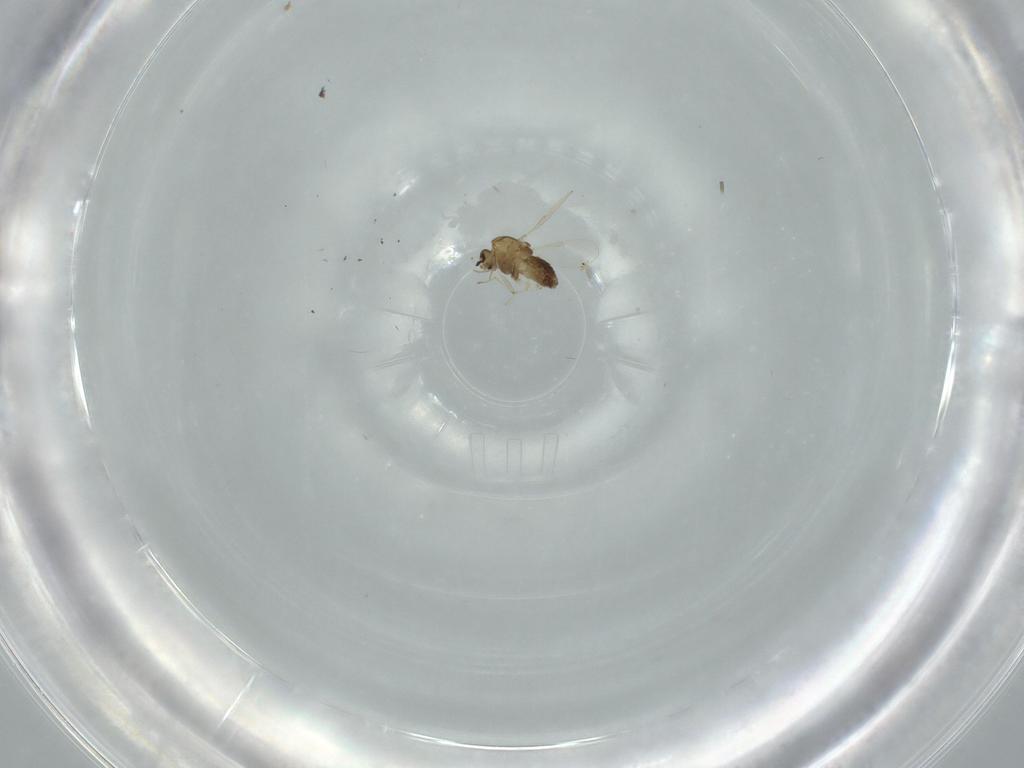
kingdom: Animalia
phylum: Arthropoda
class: Insecta
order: Diptera
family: Chironomidae
